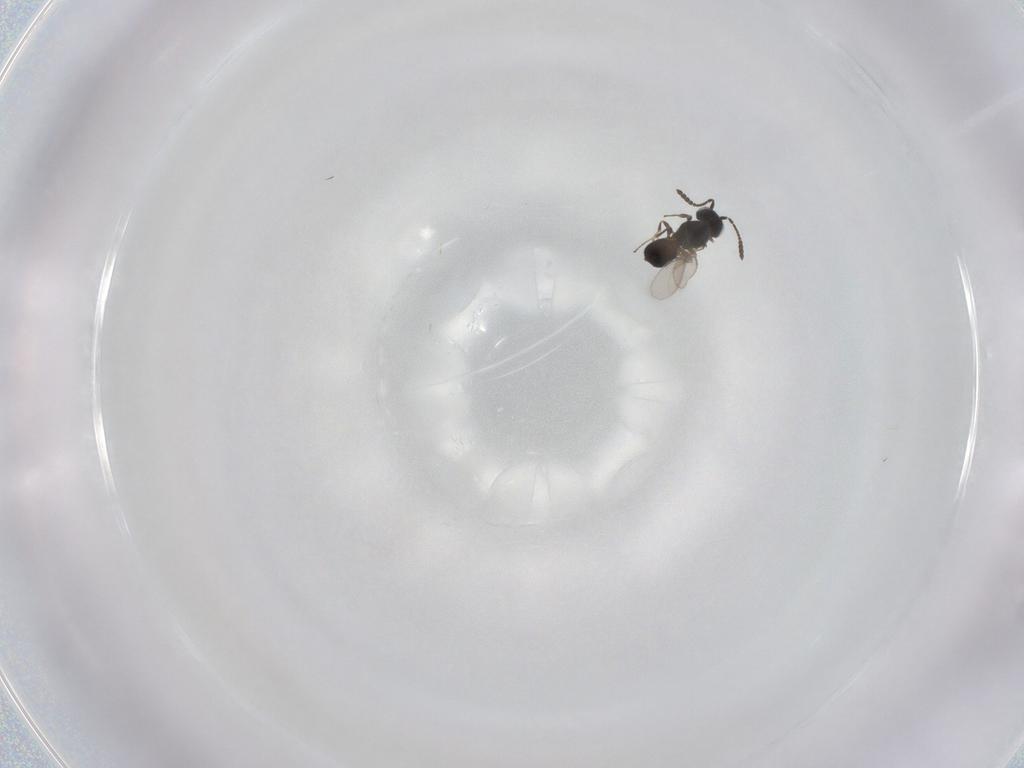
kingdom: Animalia
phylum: Arthropoda
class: Insecta
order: Hymenoptera
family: Scelionidae
